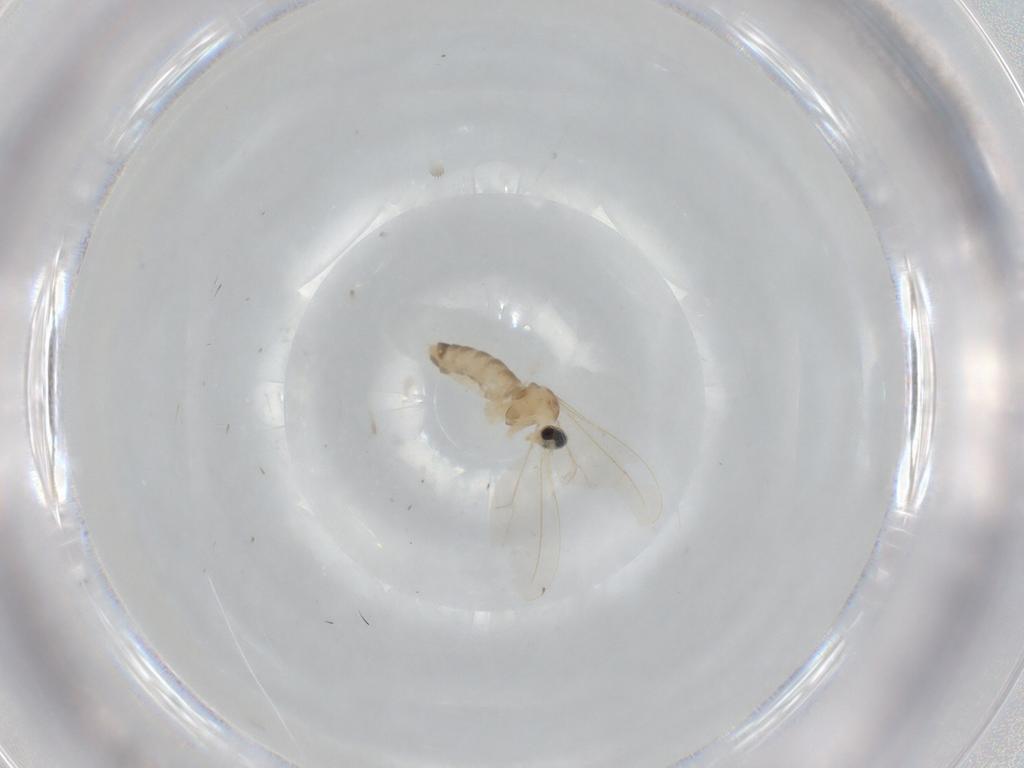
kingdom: Animalia
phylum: Arthropoda
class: Insecta
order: Diptera
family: Cecidomyiidae
